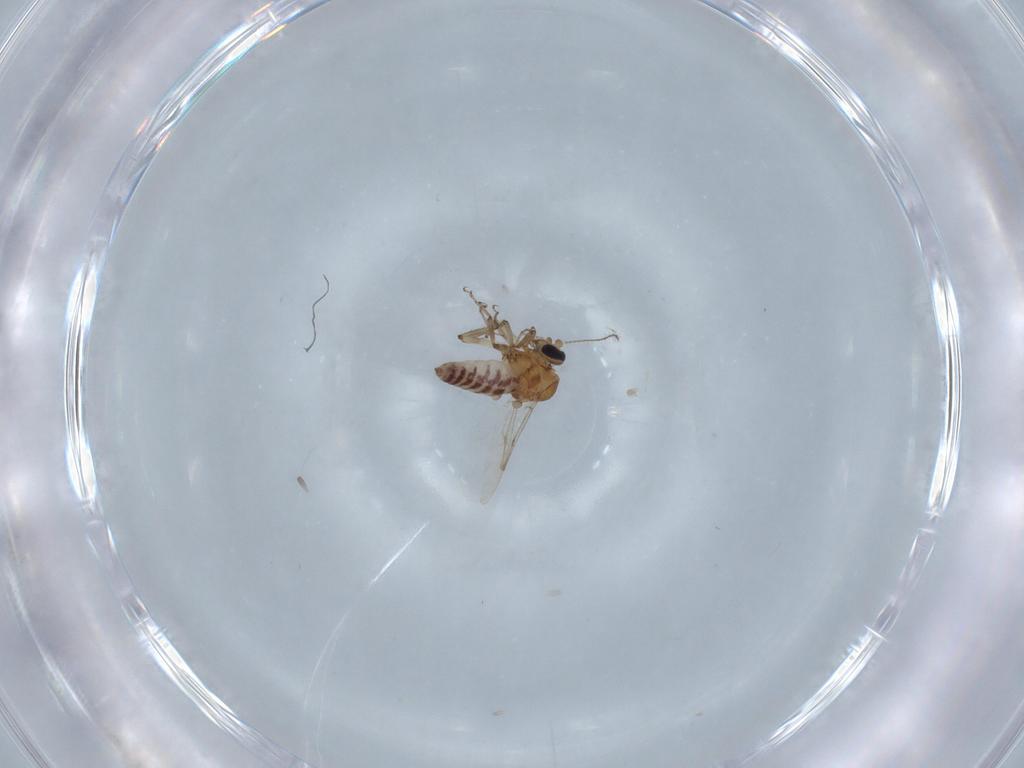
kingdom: Animalia
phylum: Arthropoda
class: Insecta
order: Diptera
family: Ceratopogonidae
